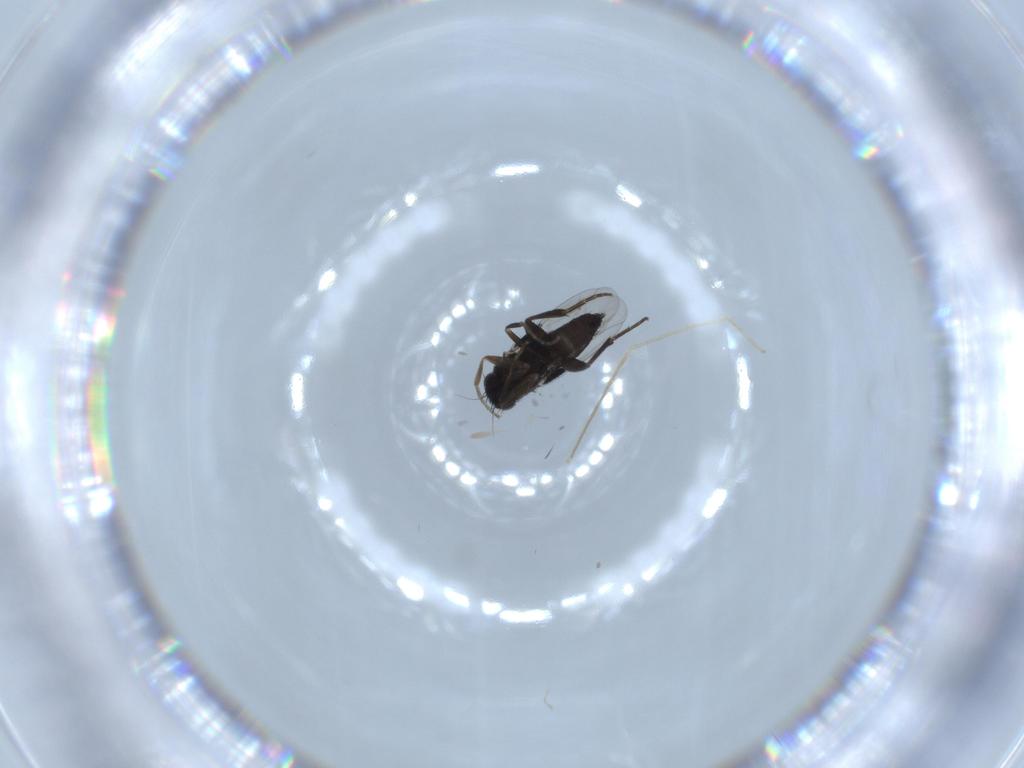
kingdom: Animalia
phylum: Arthropoda
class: Insecta
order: Diptera
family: Phoridae
